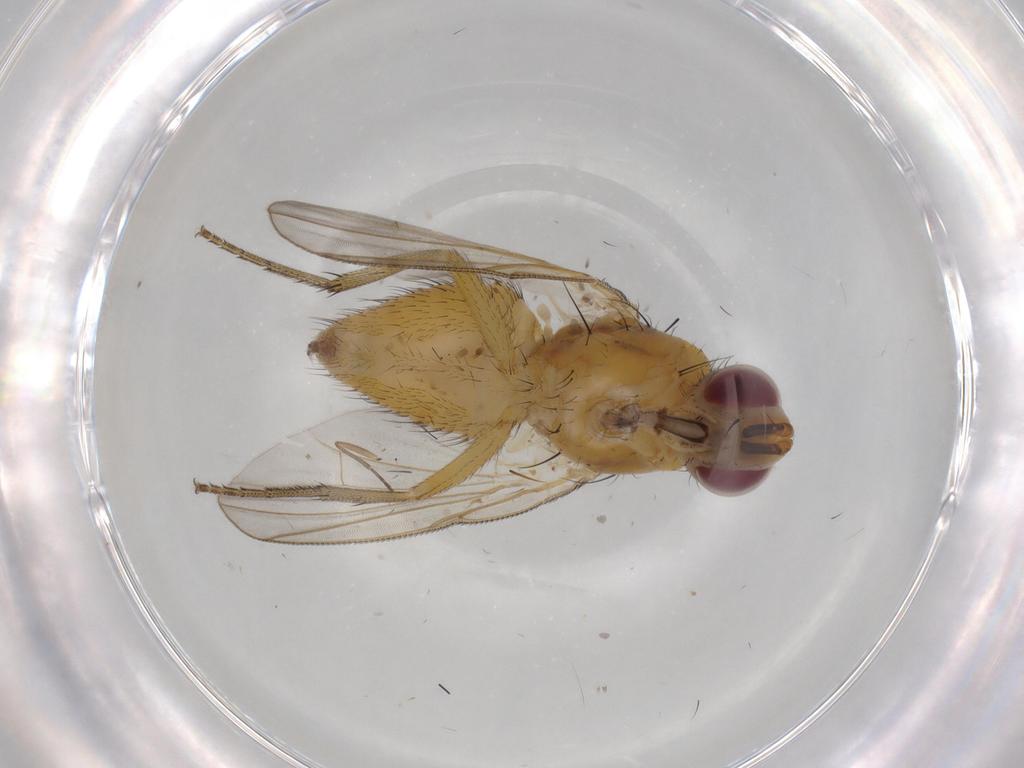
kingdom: Animalia
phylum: Arthropoda
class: Insecta
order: Diptera
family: Muscidae
